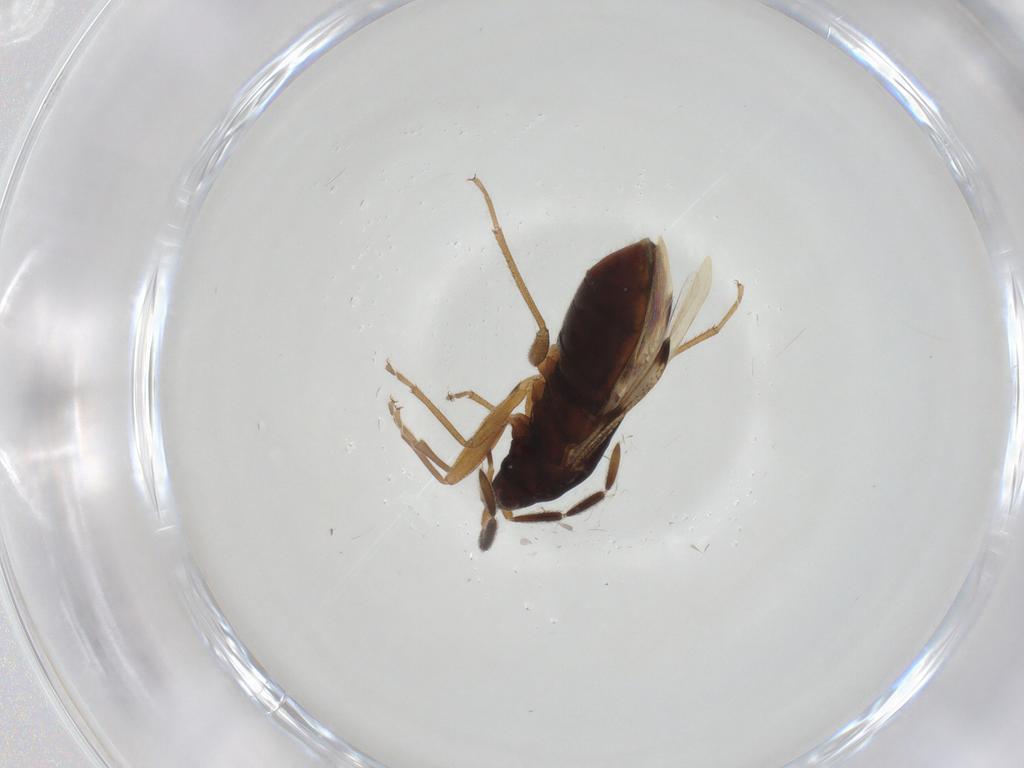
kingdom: Animalia
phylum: Arthropoda
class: Insecta
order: Hemiptera
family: Rhyparochromidae
